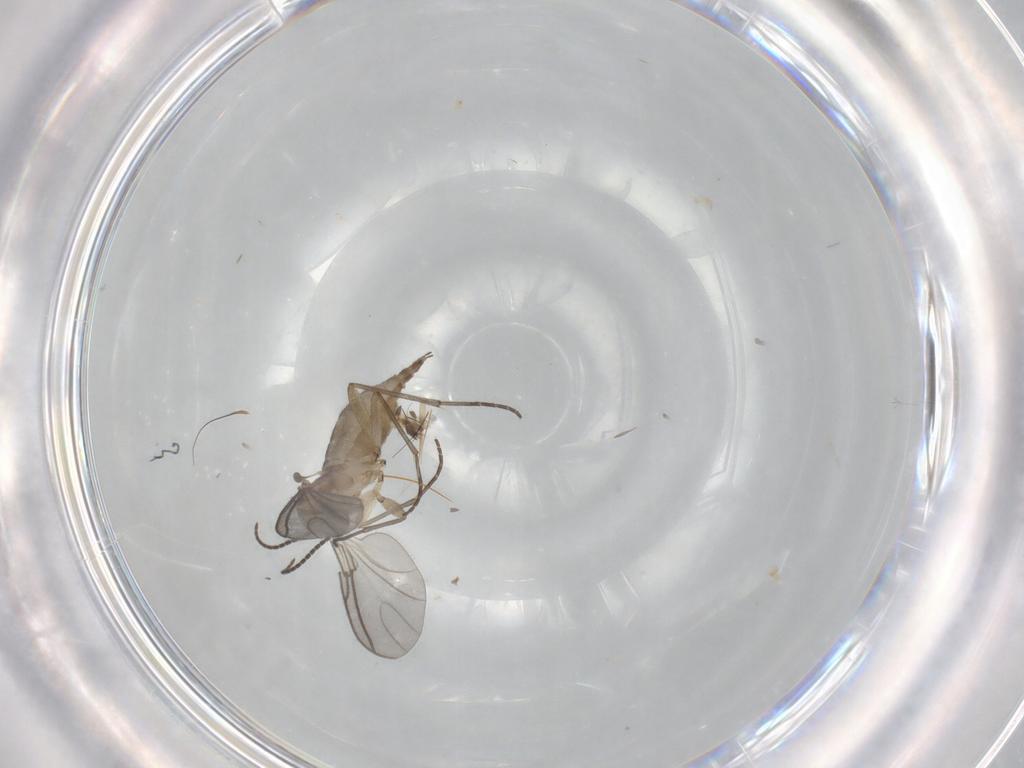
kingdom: Animalia
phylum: Arthropoda
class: Insecta
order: Diptera
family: Sciaridae
